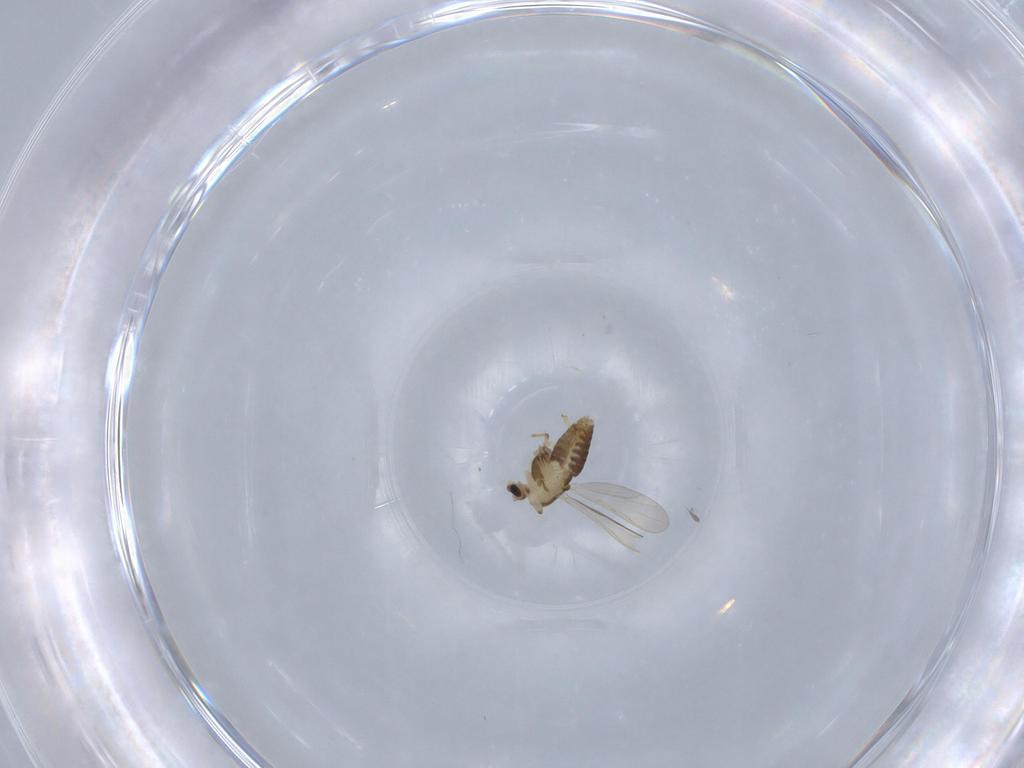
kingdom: Animalia
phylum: Arthropoda
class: Insecta
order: Diptera
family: Chironomidae
